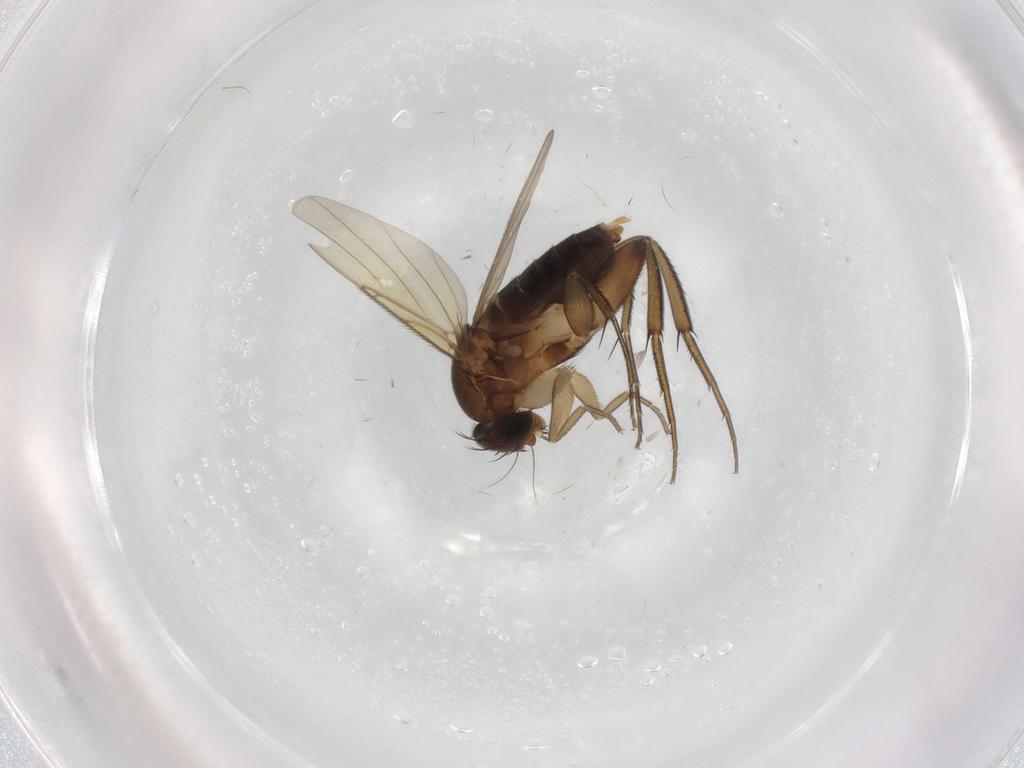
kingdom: Animalia
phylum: Arthropoda
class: Insecta
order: Diptera
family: Phoridae
